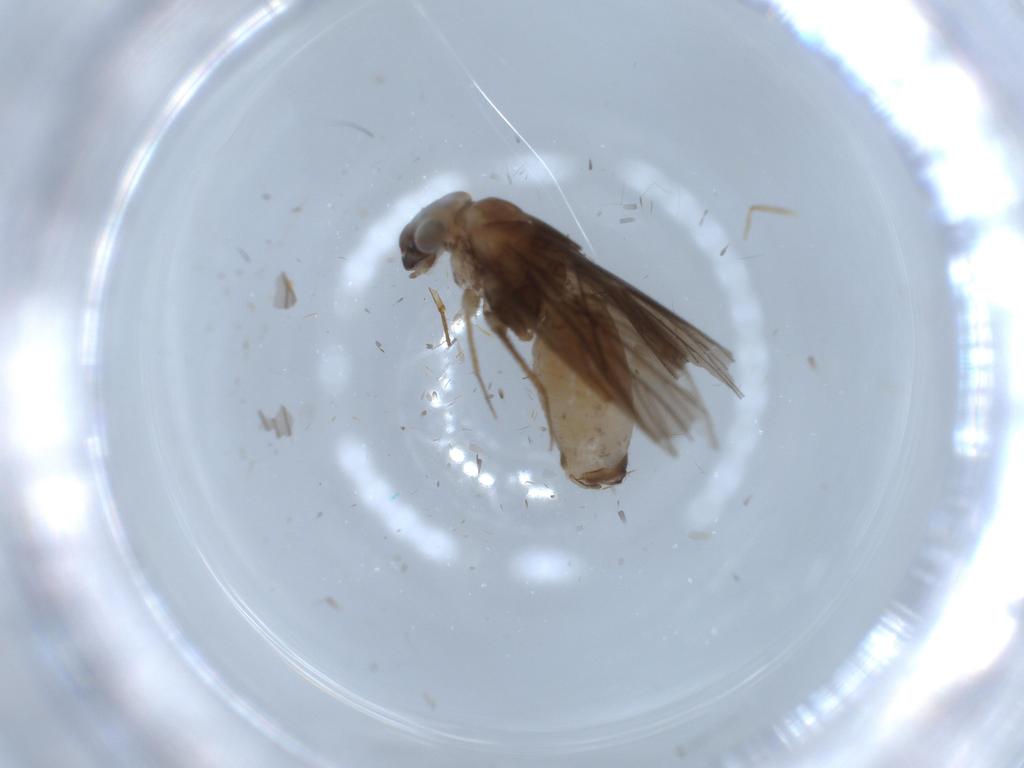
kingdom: Animalia
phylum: Arthropoda
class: Insecta
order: Psocodea
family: Lepidopsocidae
